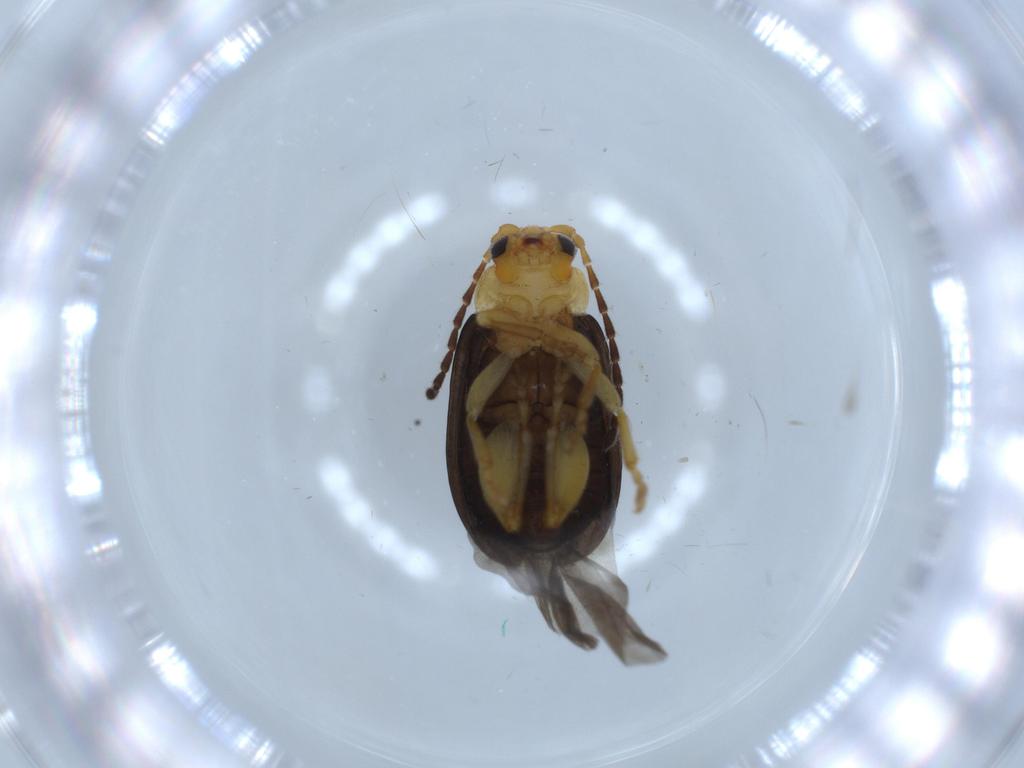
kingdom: Animalia
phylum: Arthropoda
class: Insecta
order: Coleoptera
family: Chrysomelidae
